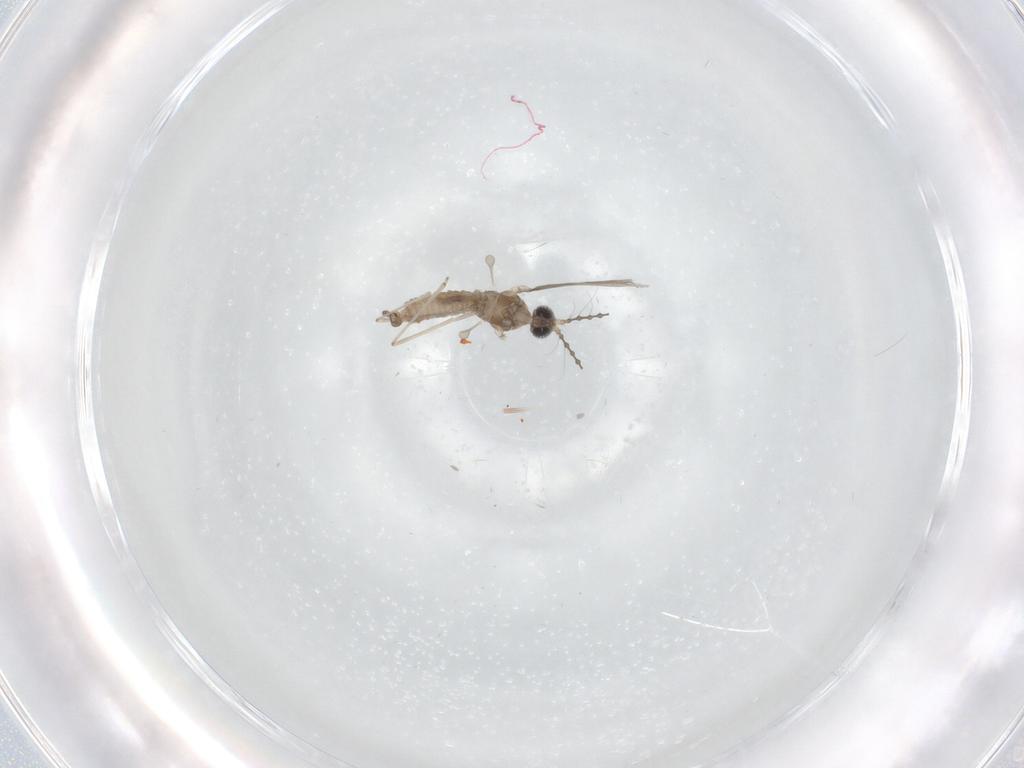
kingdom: Animalia
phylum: Arthropoda
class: Insecta
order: Diptera
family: Cecidomyiidae
